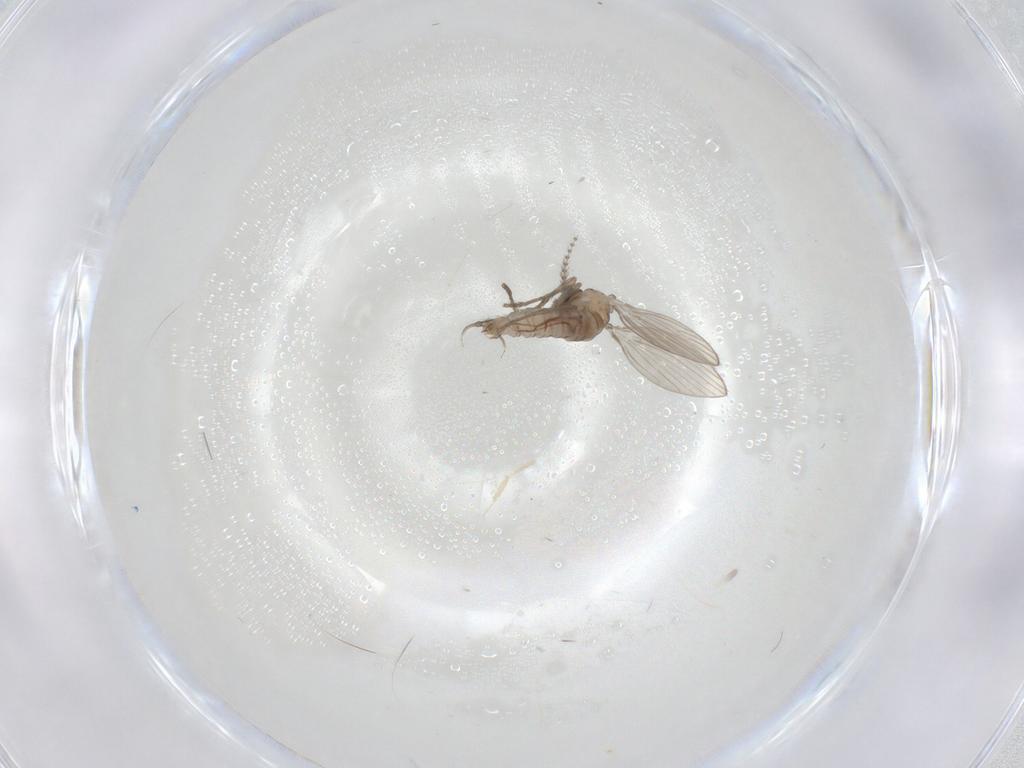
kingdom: Animalia
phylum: Arthropoda
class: Insecta
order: Diptera
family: Psychodidae
